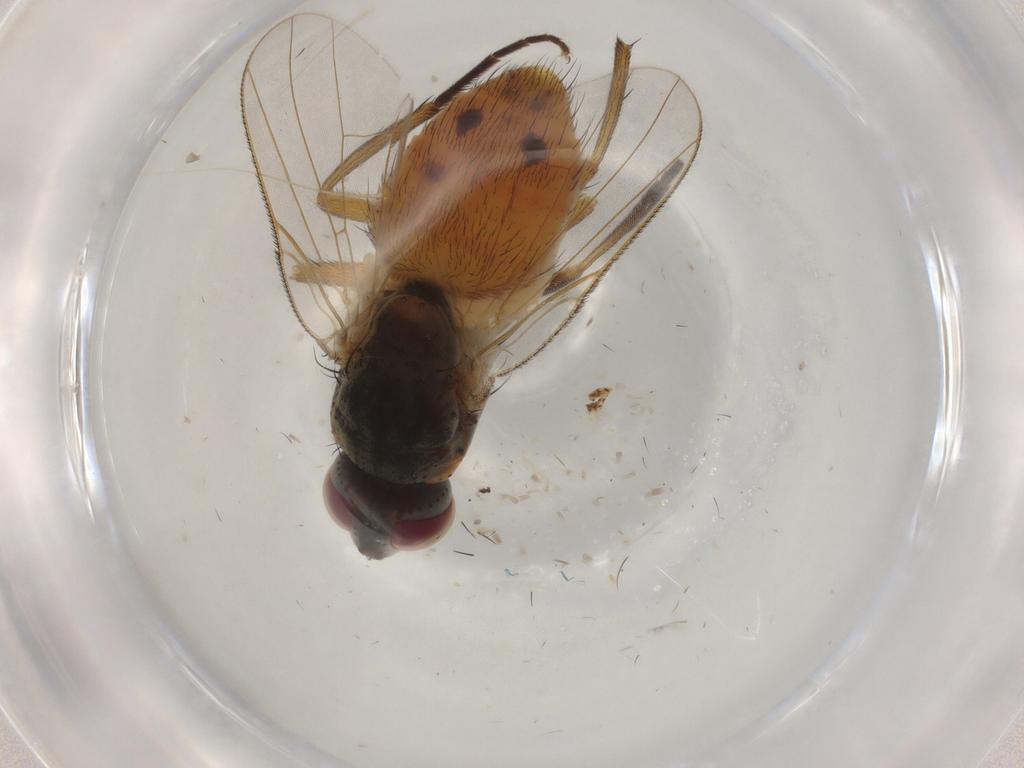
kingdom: Animalia
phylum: Arthropoda
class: Insecta
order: Diptera
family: Muscidae
